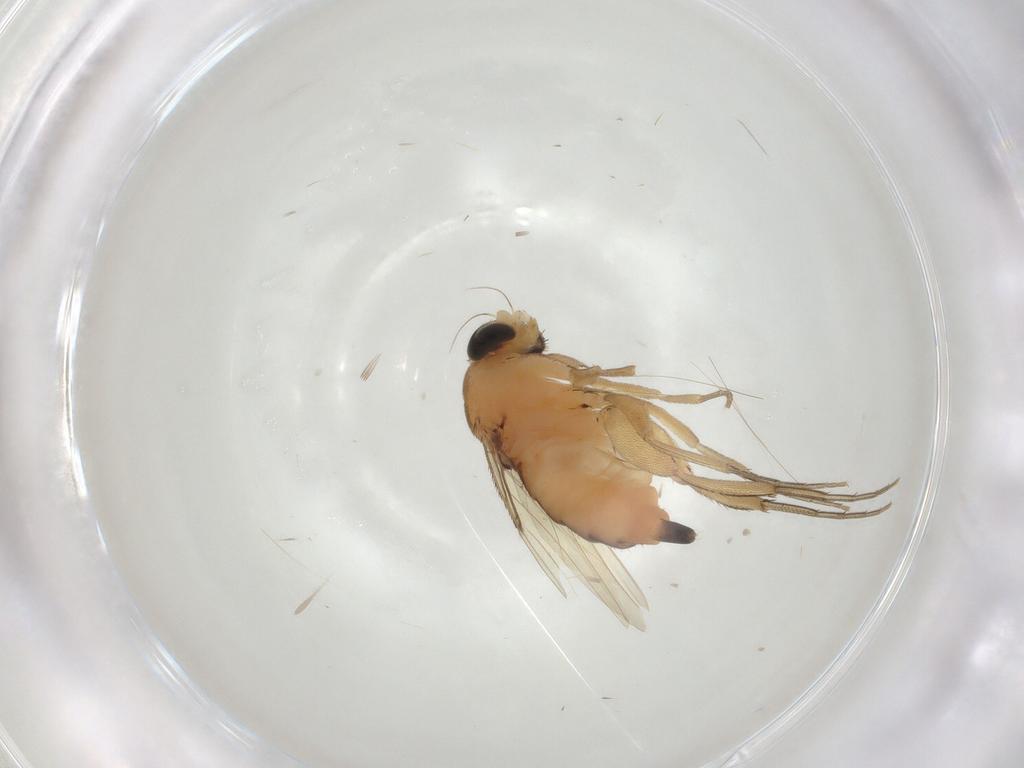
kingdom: Animalia
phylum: Arthropoda
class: Insecta
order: Diptera
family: Phoridae
